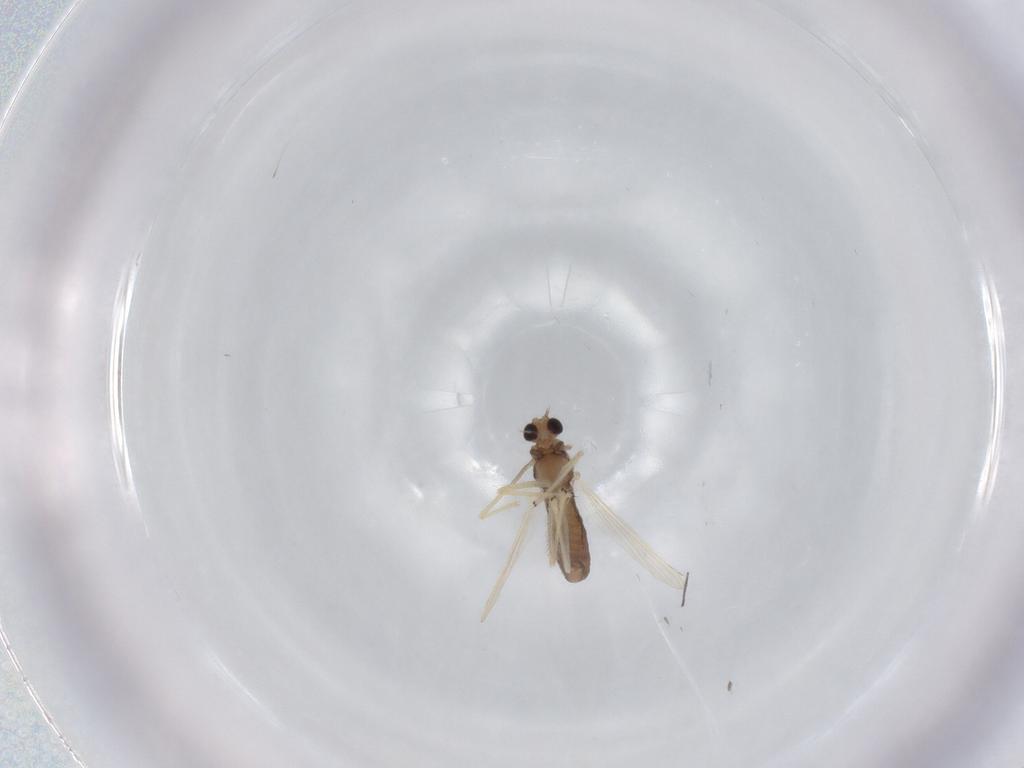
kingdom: Animalia
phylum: Arthropoda
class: Insecta
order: Diptera
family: Chironomidae
